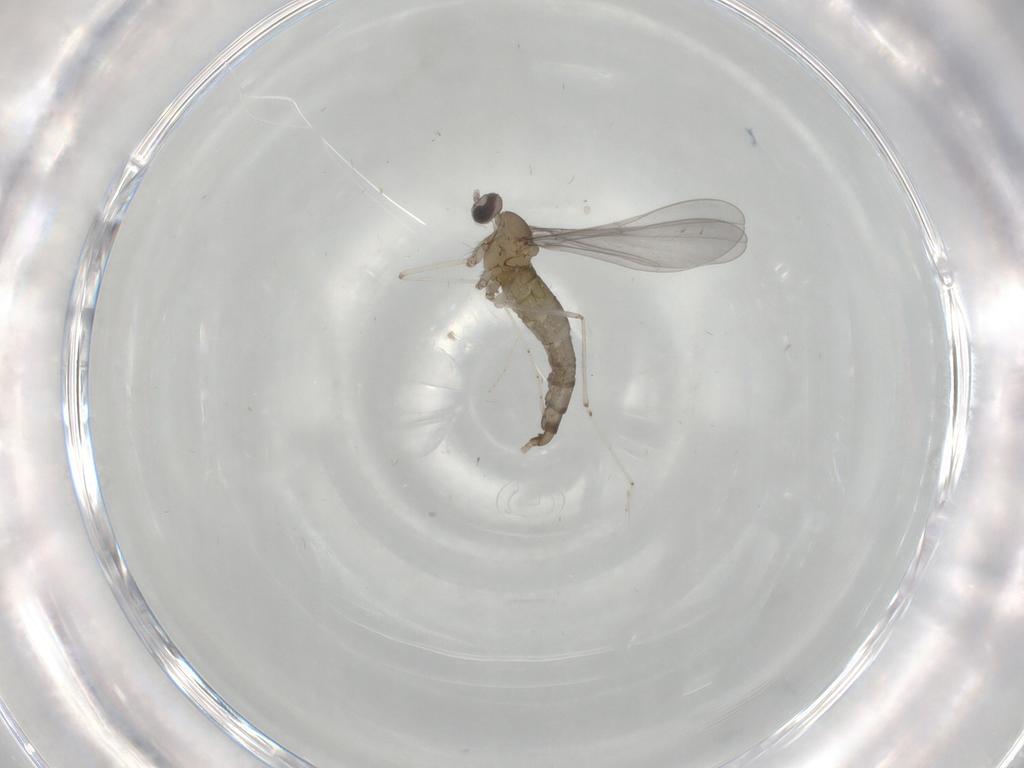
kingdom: Animalia
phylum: Arthropoda
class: Insecta
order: Diptera
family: Cecidomyiidae
